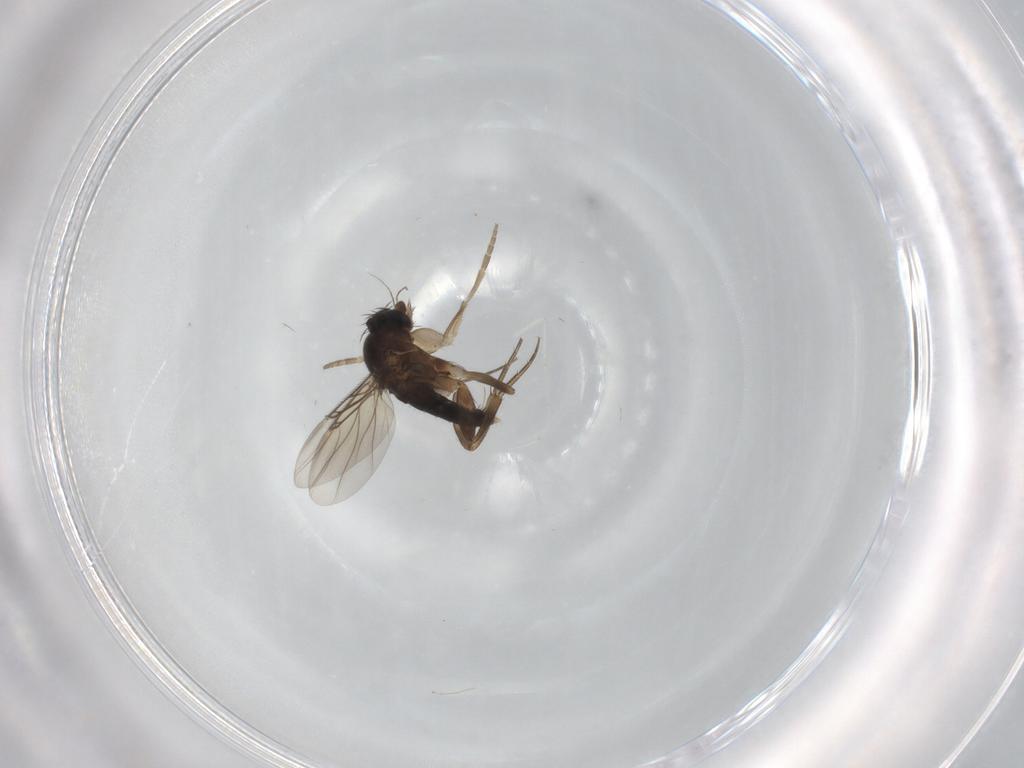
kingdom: Animalia
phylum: Arthropoda
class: Insecta
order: Diptera
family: Phoridae
